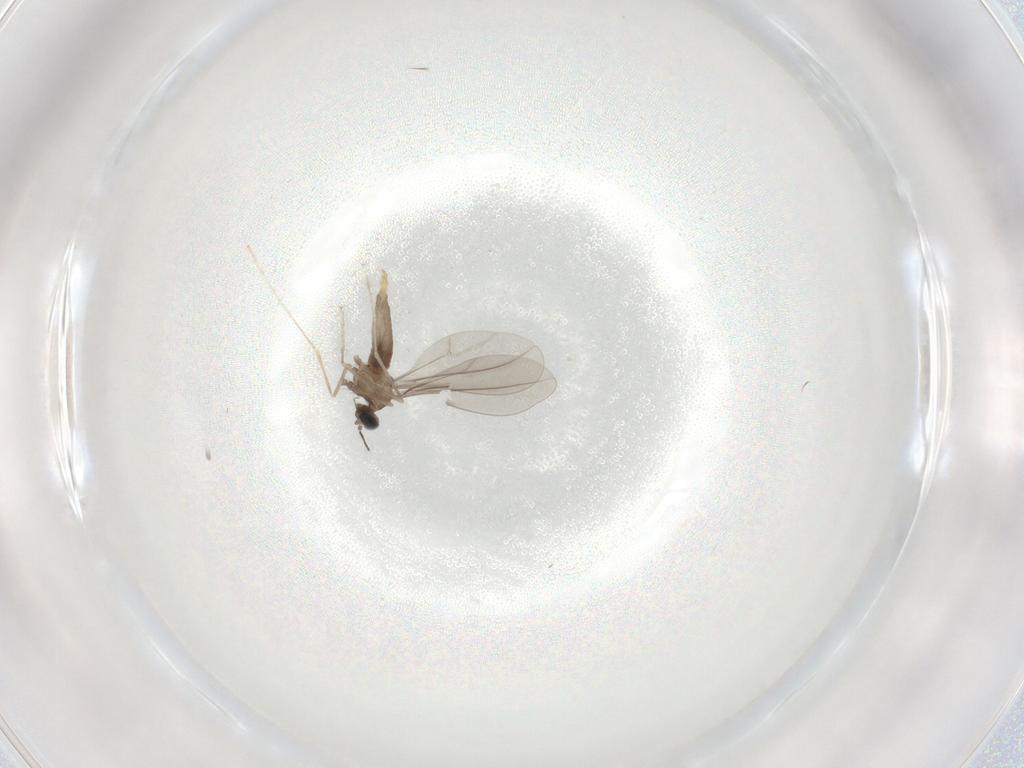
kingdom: Animalia
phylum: Arthropoda
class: Insecta
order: Diptera
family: Cecidomyiidae
